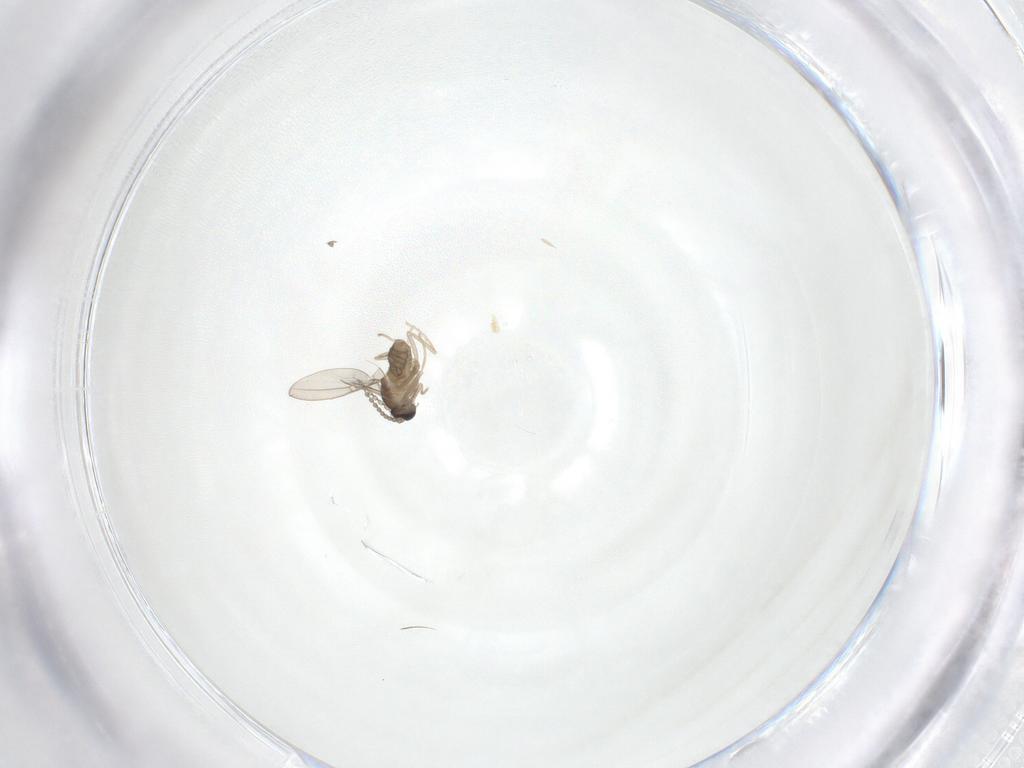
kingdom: Animalia
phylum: Arthropoda
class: Insecta
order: Diptera
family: Cecidomyiidae
